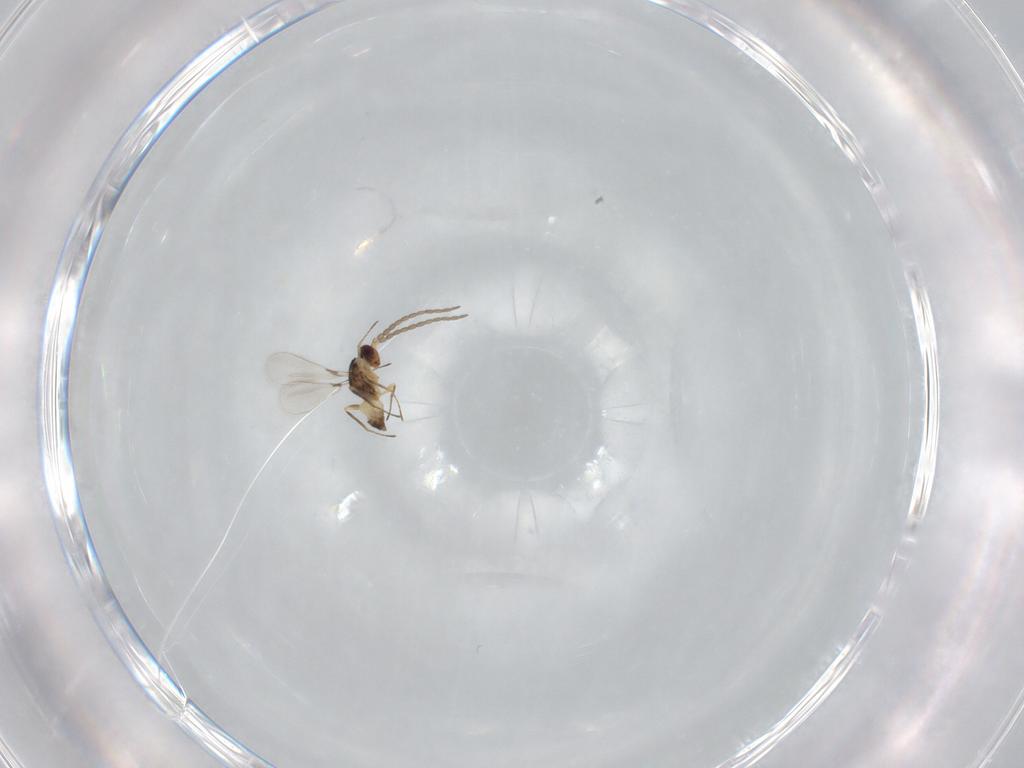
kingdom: Animalia
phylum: Arthropoda
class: Insecta
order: Hymenoptera
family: Mymaridae
